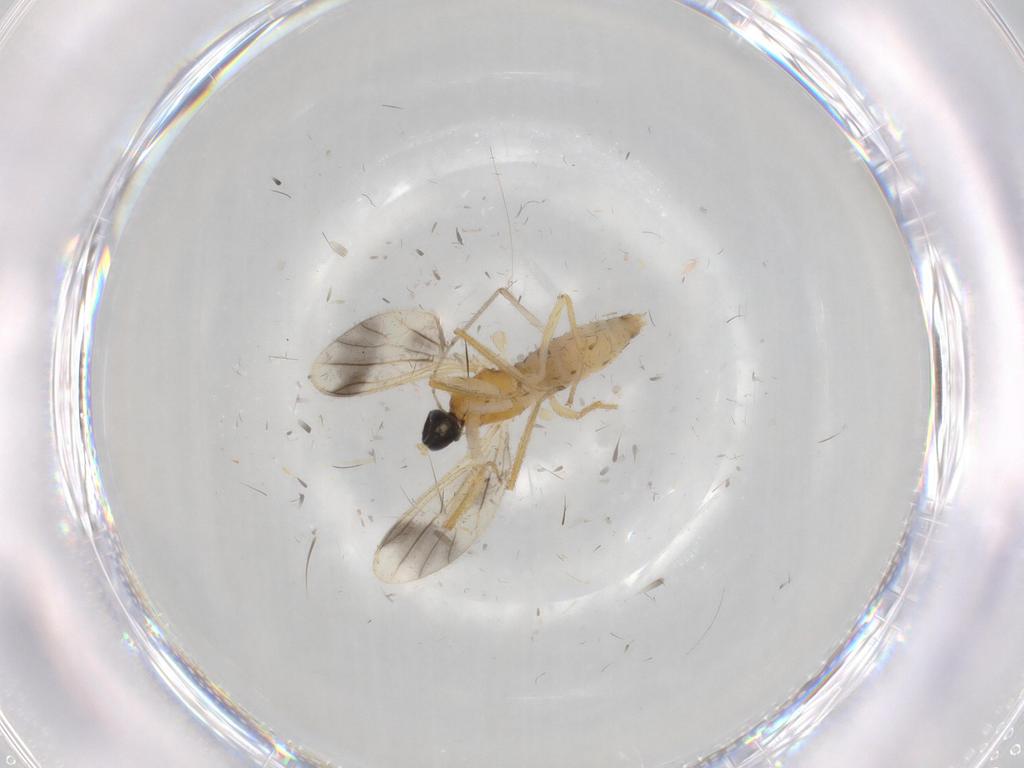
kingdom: Animalia
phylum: Arthropoda
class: Insecta
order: Diptera
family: Empididae
